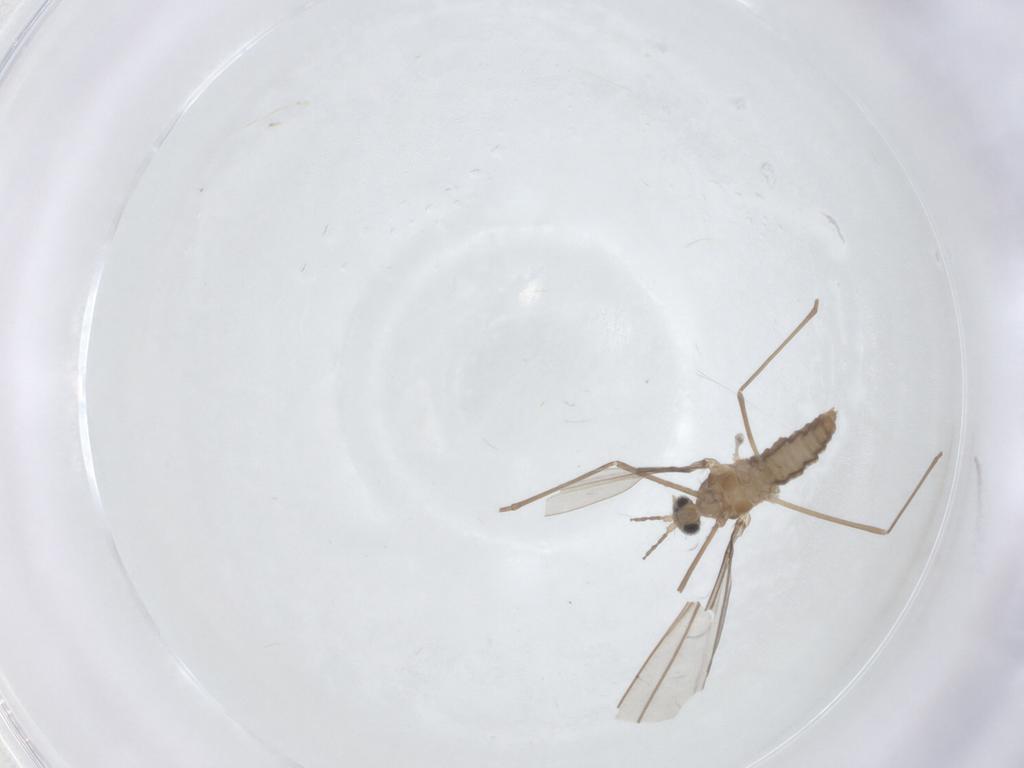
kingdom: Animalia
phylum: Arthropoda
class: Insecta
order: Diptera
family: Cecidomyiidae
